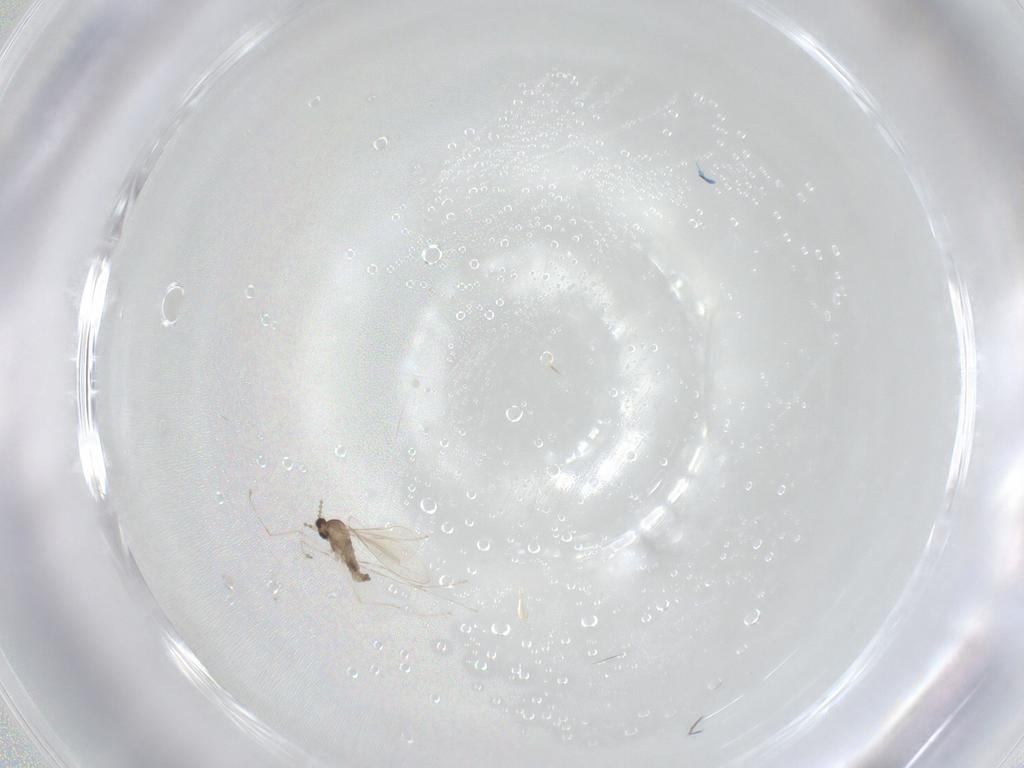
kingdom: Animalia
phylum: Arthropoda
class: Insecta
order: Diptera
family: Cecidomyiidae
